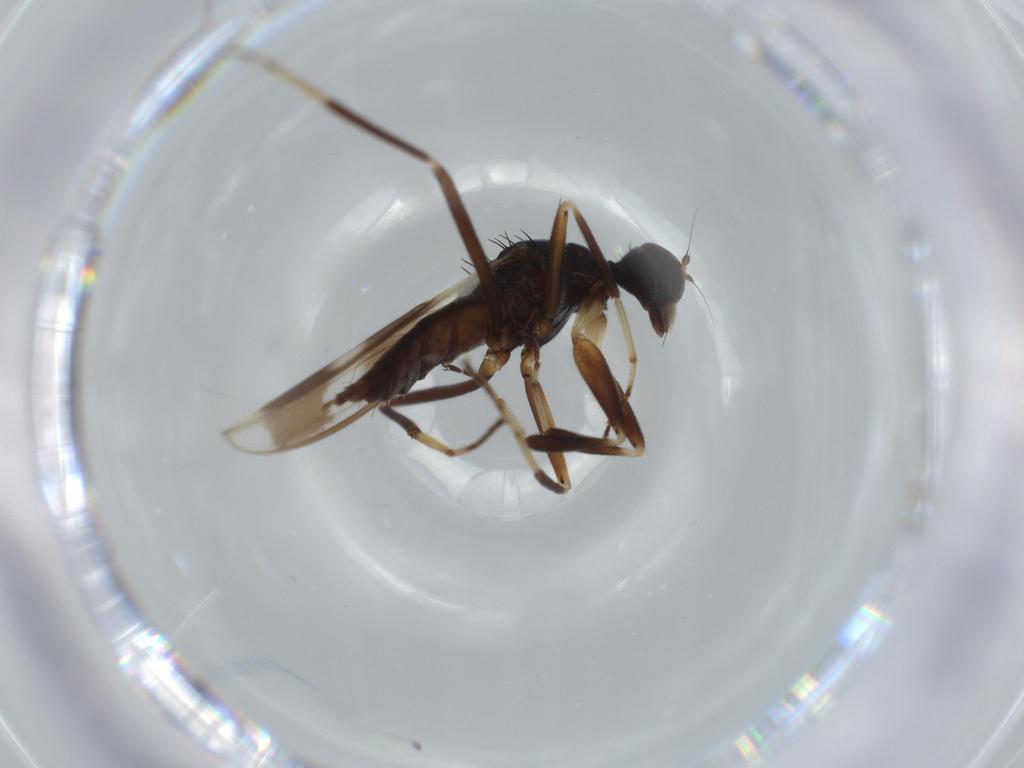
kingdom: Animalia
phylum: Arthropoda
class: Insecta
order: Diptera
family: Hybotidae
